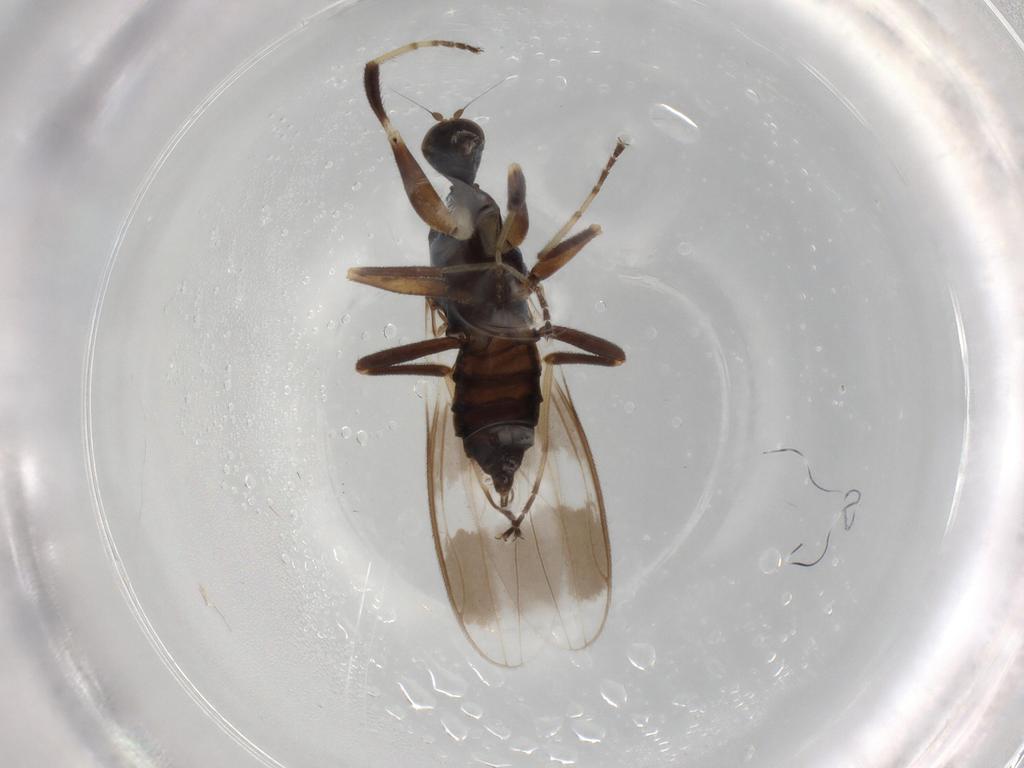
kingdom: Animalia
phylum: Arthropoda
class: Insecta
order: Diptera
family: Hybotidae
